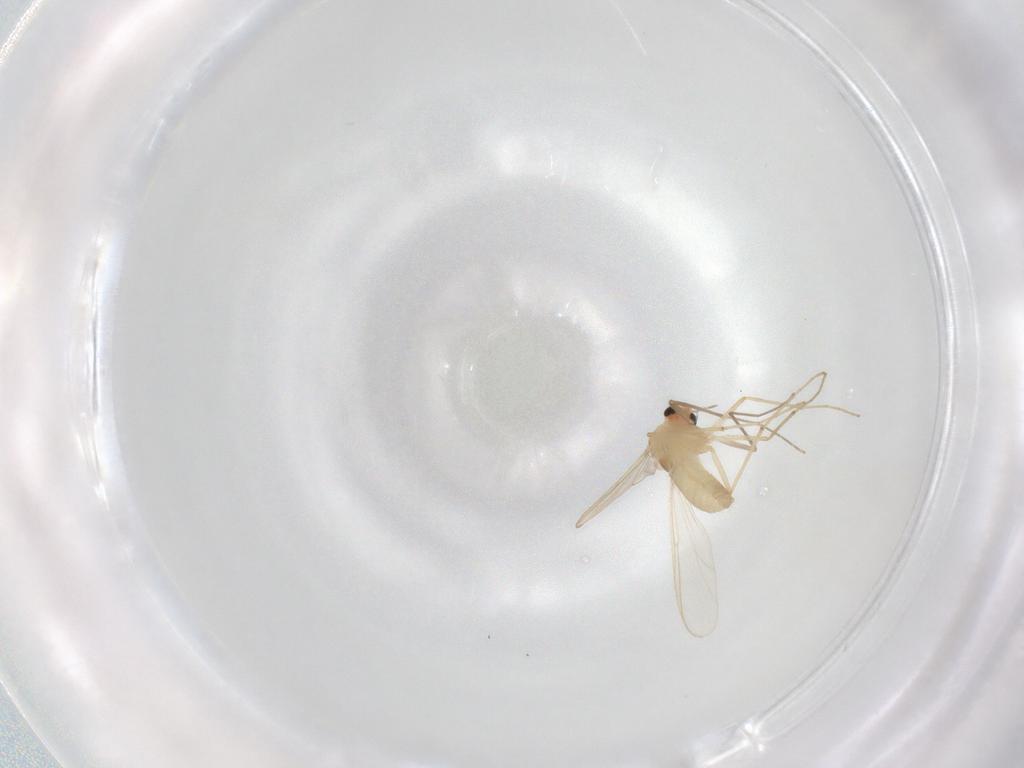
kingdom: Animalia
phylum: Arthropoda
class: Insecta
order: Diptera
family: Chironomidae
